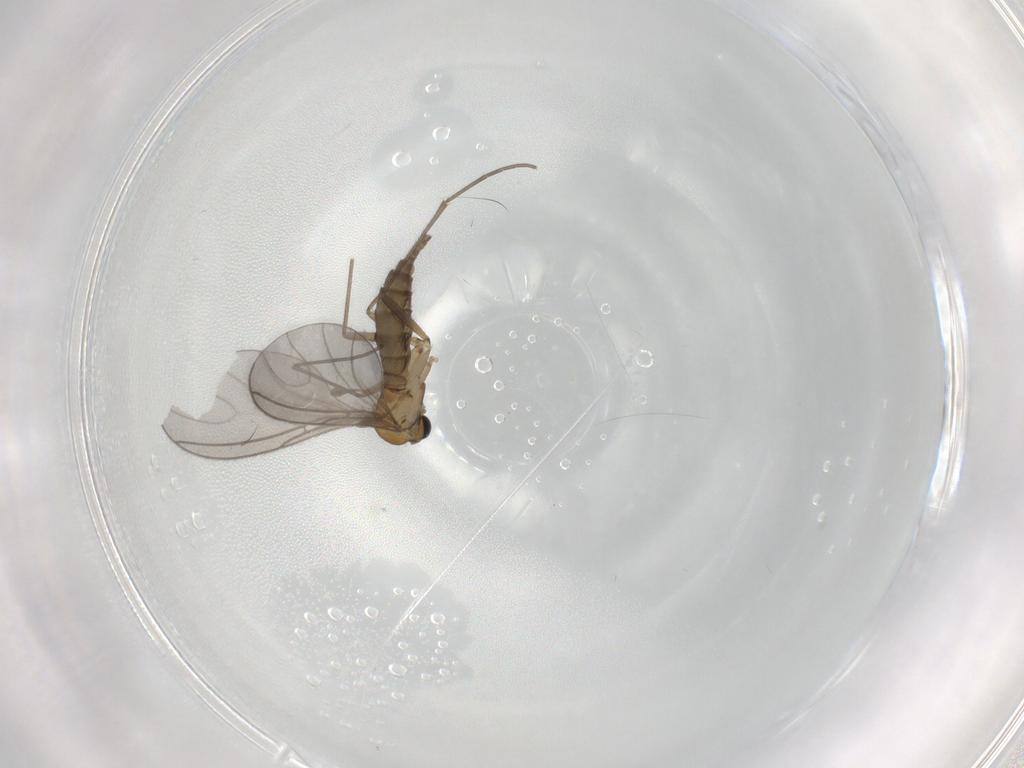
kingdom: Animalia
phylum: Arthropoda
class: Insecta
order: Diptera
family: Sciaridae
